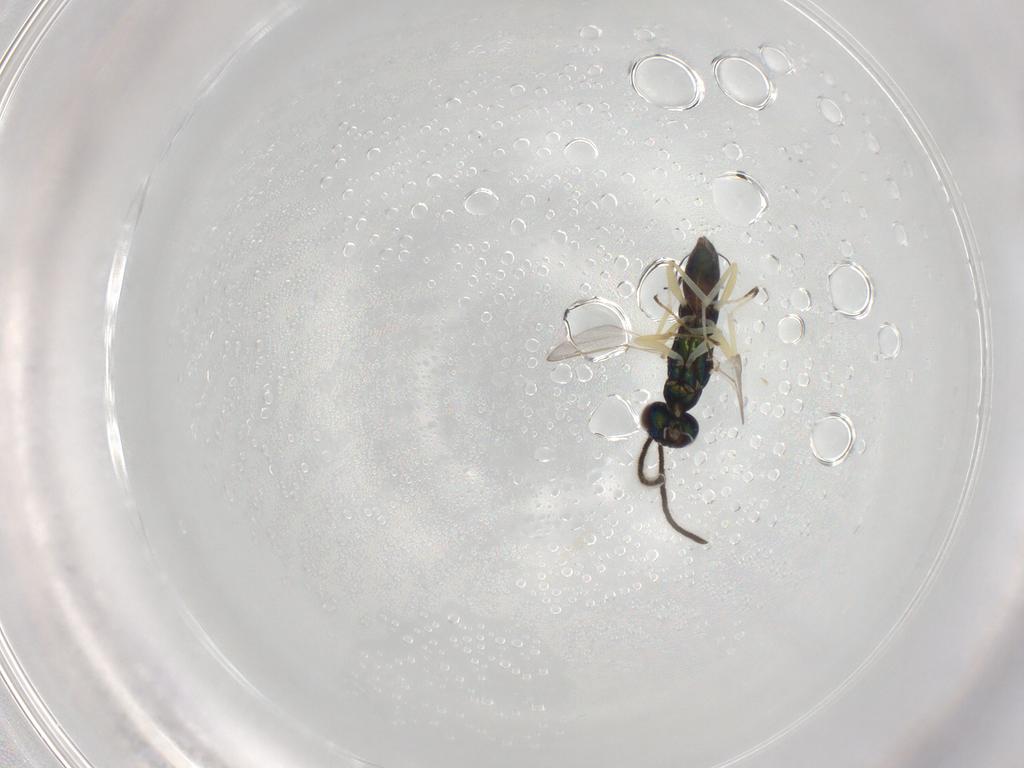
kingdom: Animalia
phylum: Arthropoda
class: Insecta
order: Hymenoptera
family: Vespidae
